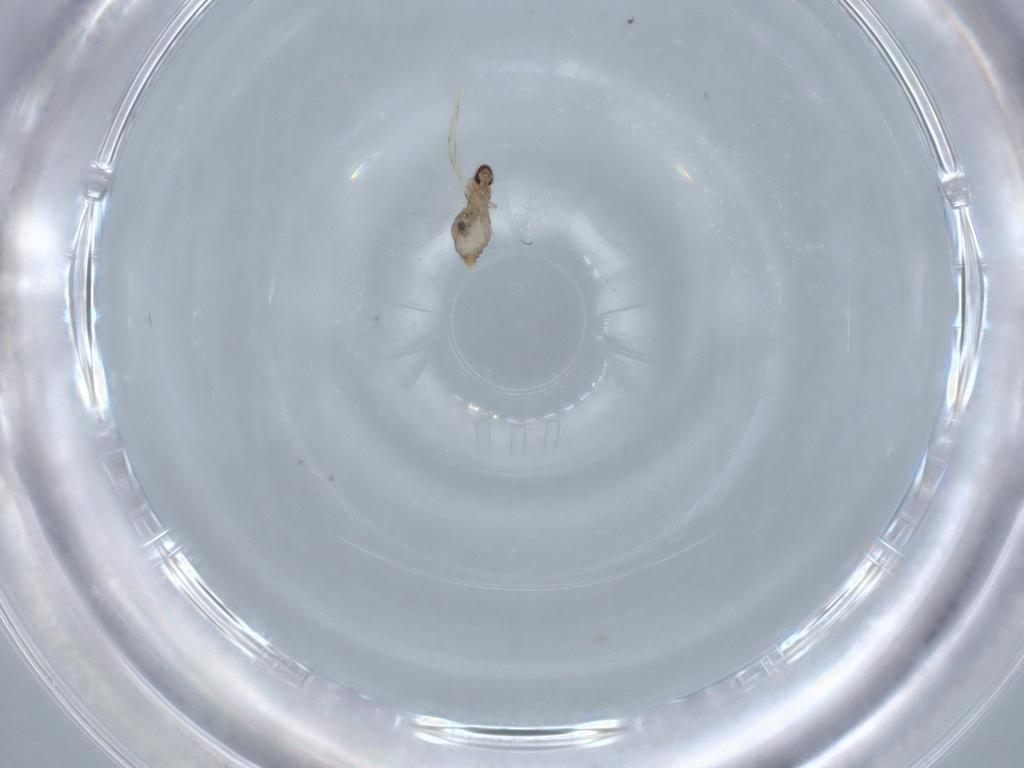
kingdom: Animalia
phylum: Arthropoda
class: Insecta
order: Diptera
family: Cecidomyiidae
